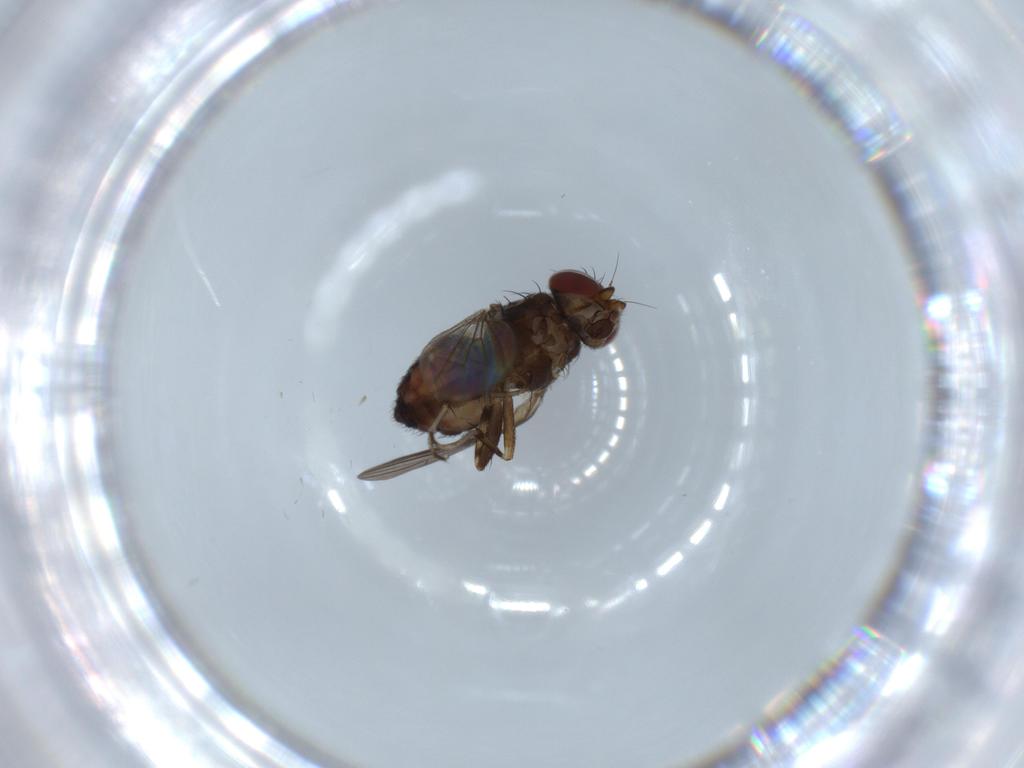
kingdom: Animalia
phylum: Arthropoda
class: Insecta
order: Diptera
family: Heleomyzidae
